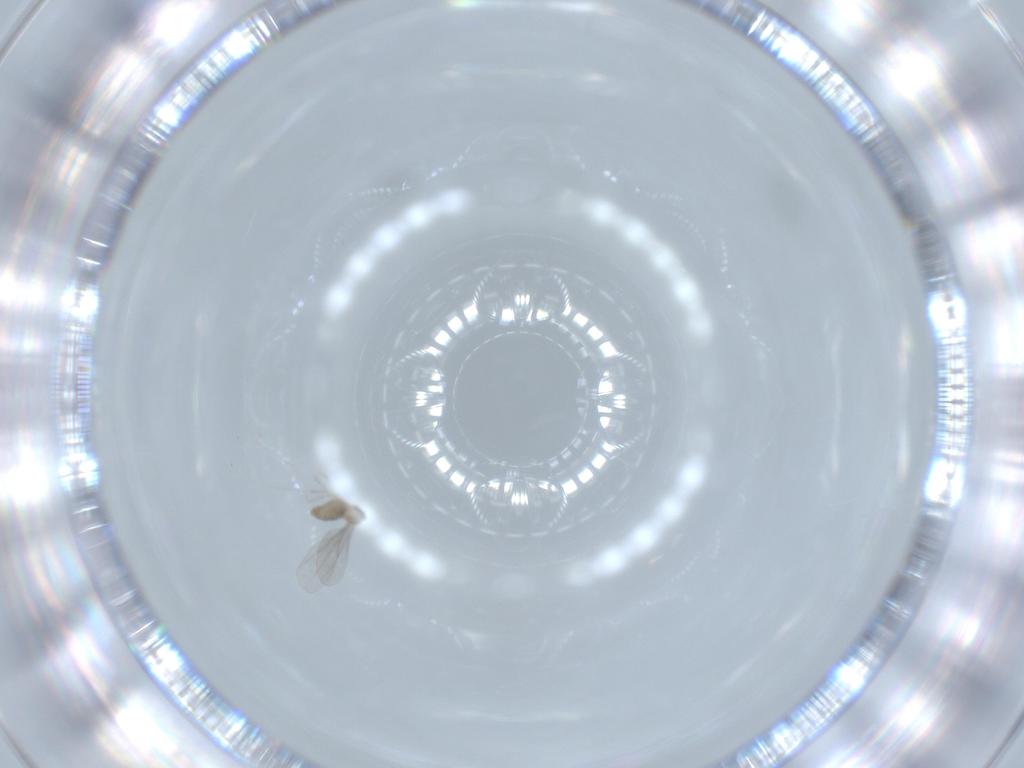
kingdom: Animalia
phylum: Arthropoda
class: Insecta
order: Diptera
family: Cecidomyiidae
